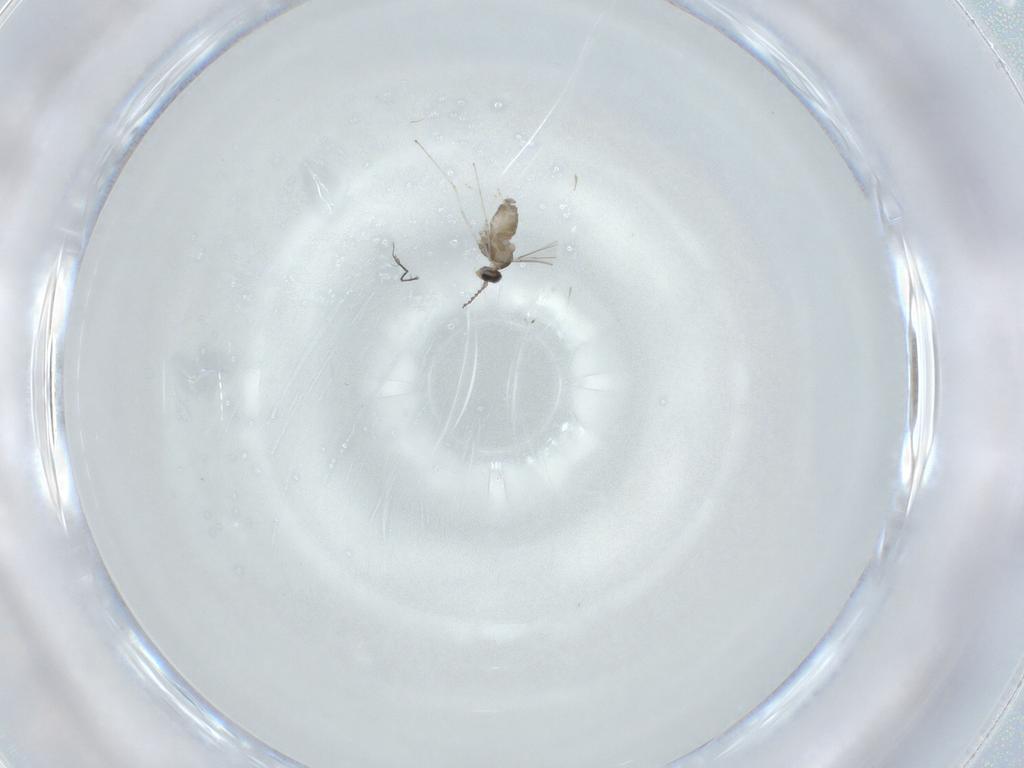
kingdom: Animalia
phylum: Arthropoda
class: Insecta
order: Diptera
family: Cecidomyiidae
